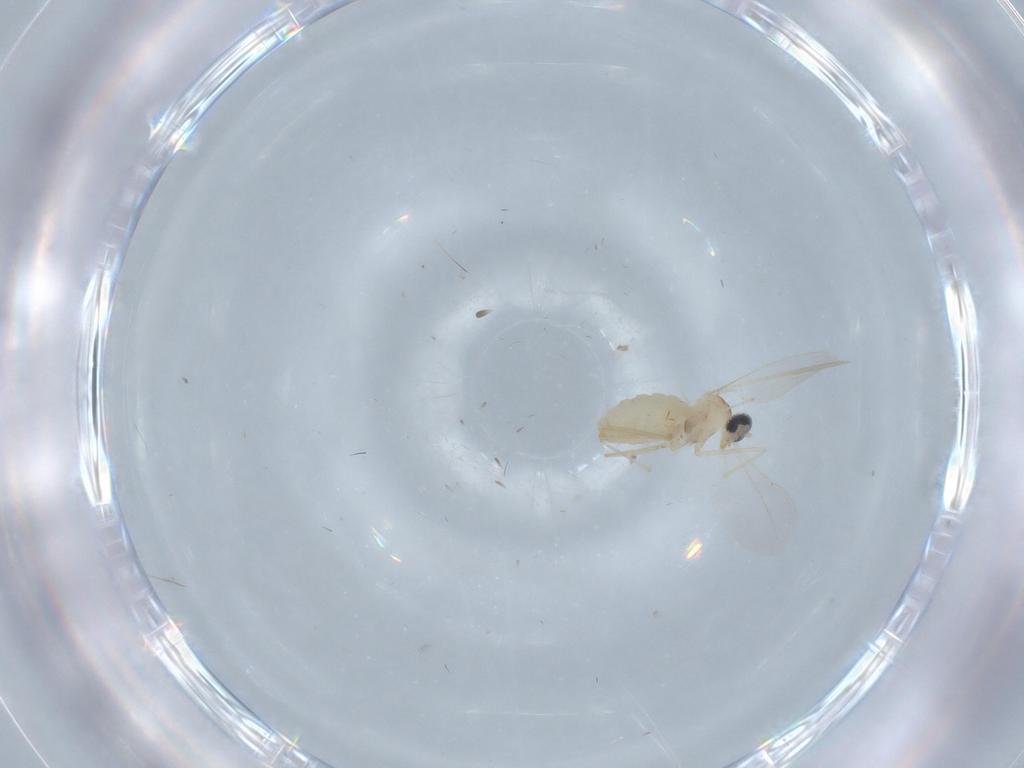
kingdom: Animalia
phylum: Arthropoda
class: Insecta
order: Diptera
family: Cecidomyiidae
